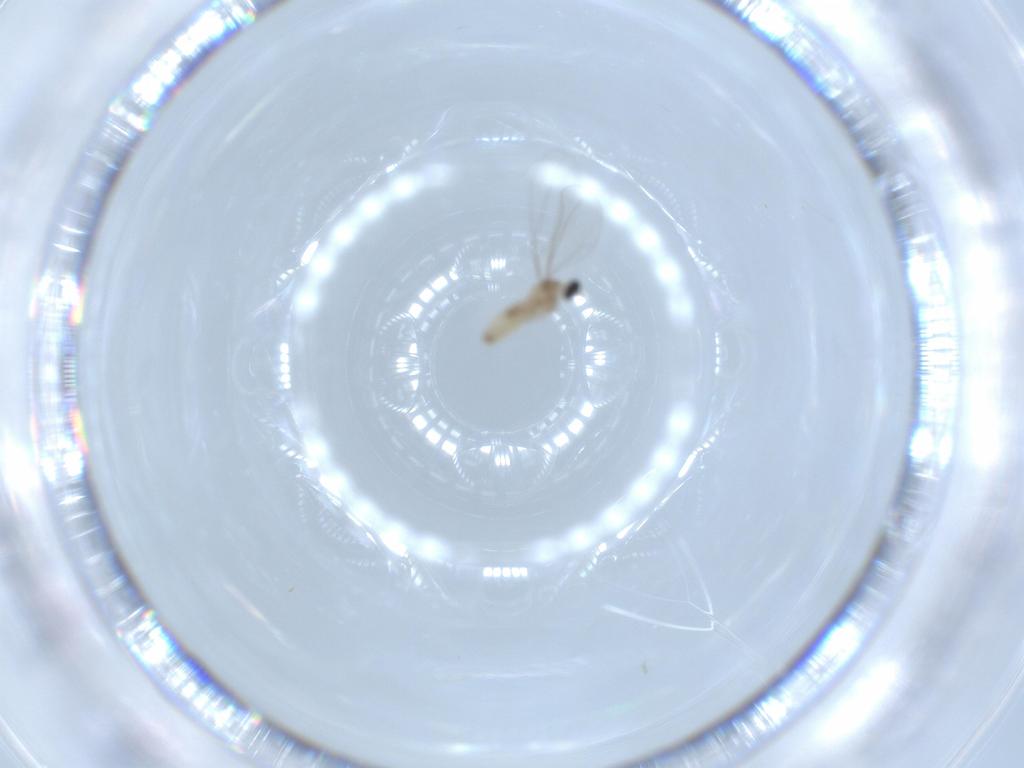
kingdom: Animalia
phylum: Arthropoda
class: Insecta
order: Diptera
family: Cecidomyiidae
